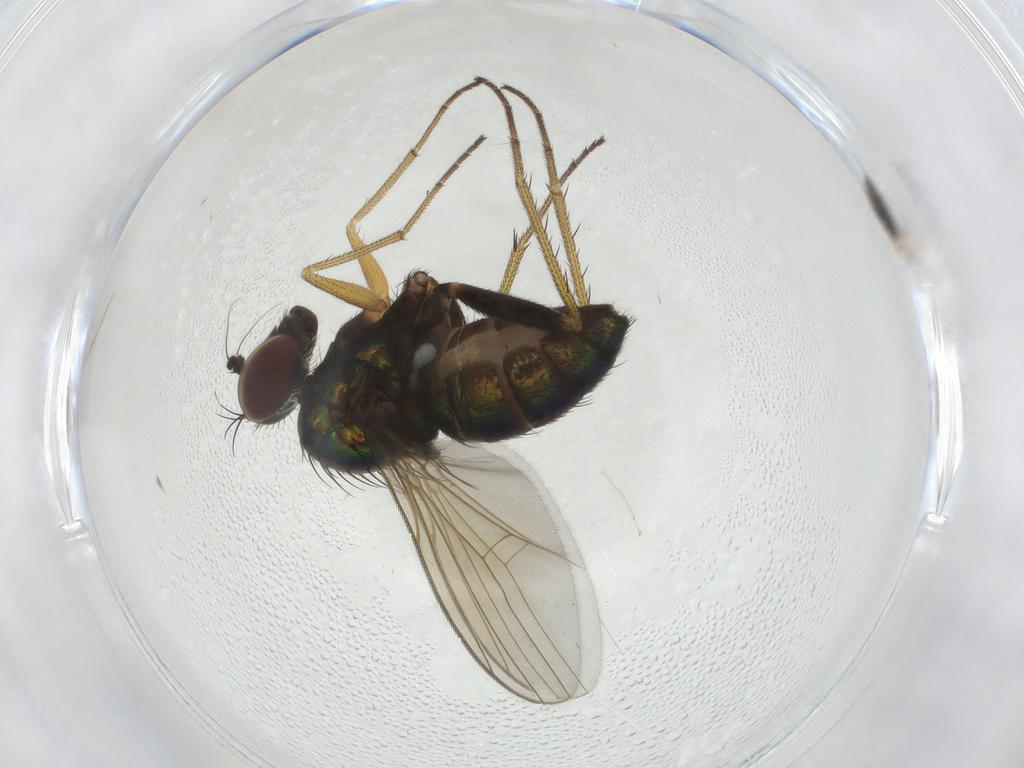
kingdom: Animalia
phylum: Arthropoda
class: Insecta
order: Diptera
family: Dolichopodidae
